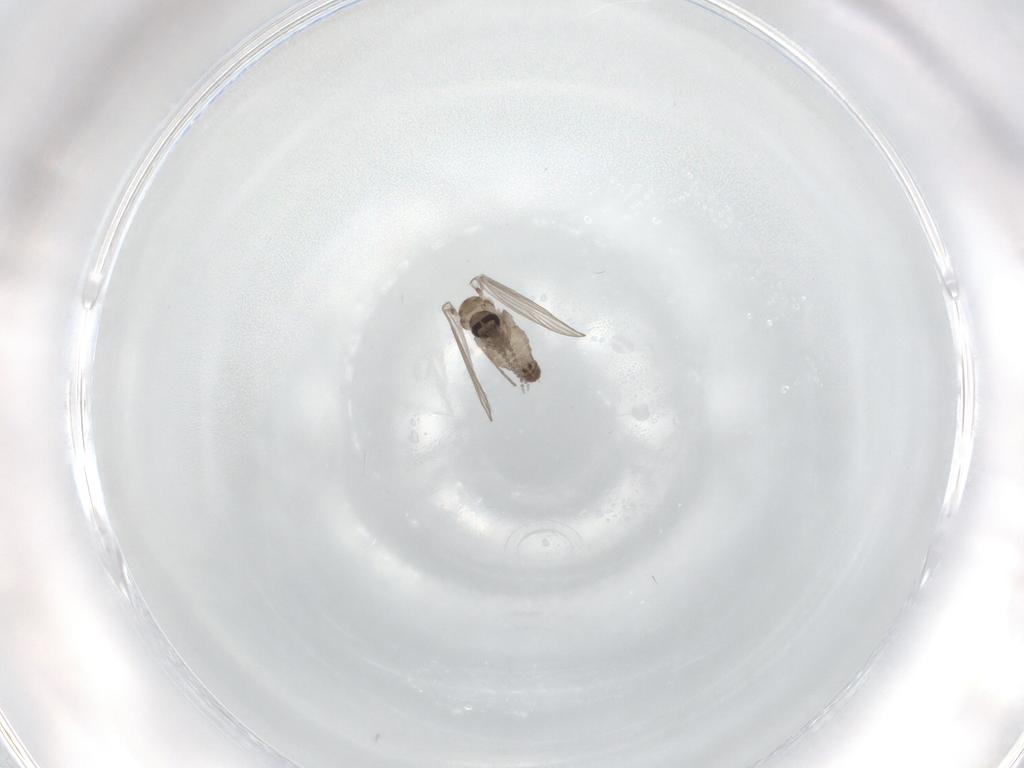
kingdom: Animalia
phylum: Arthropoda
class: Insecta
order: Diptera
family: Psychodidae
